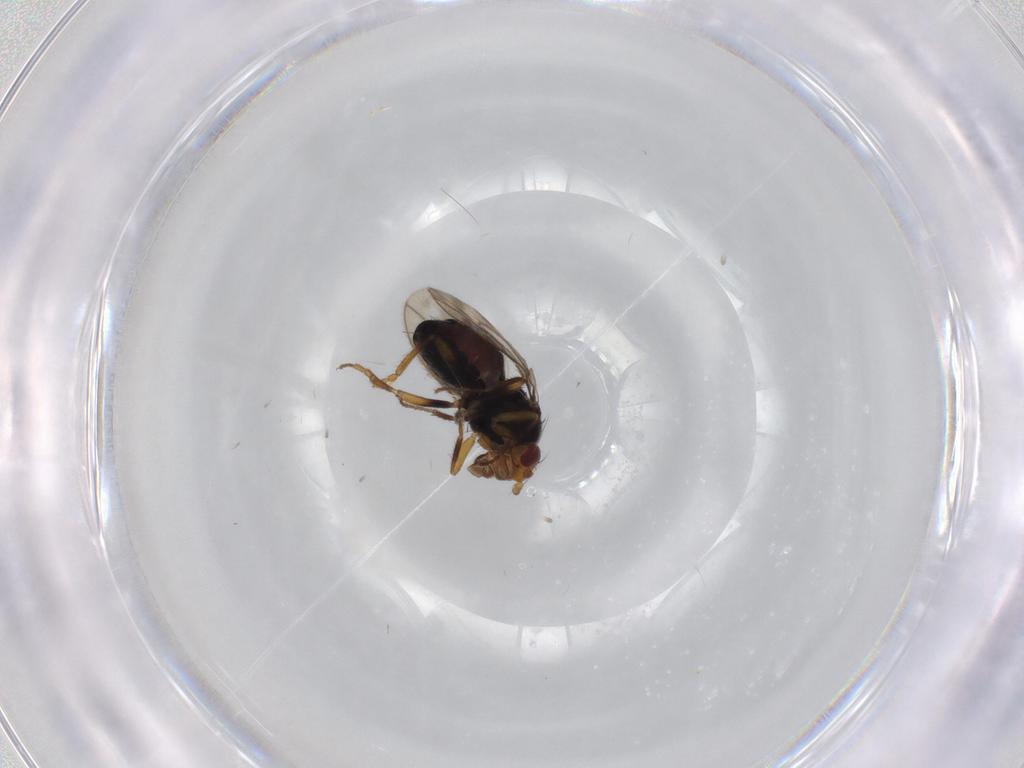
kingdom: Animalia
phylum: Arthropoda
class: Insecta
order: Diptera
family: Sphaeroceridae
